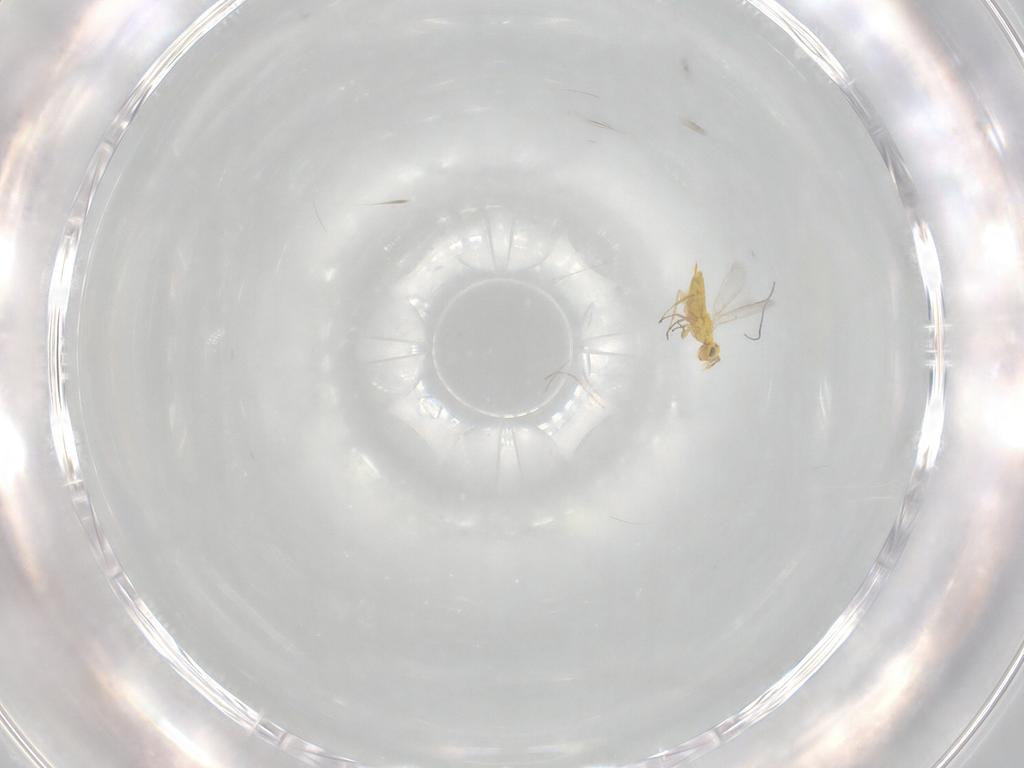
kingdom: Animalia
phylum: Arthropoda
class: Insecta
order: Hymenoptera
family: Aphelinidae
